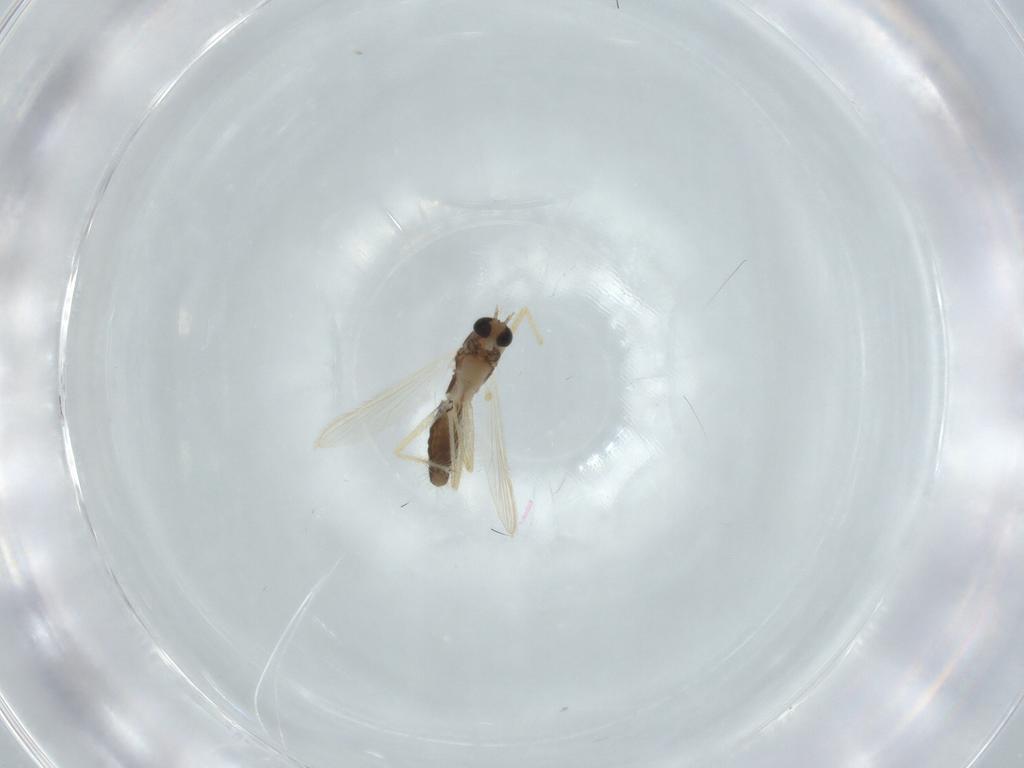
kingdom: Animalia
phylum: Arthropoda
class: Insecta
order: Diptera
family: Chironomidae
